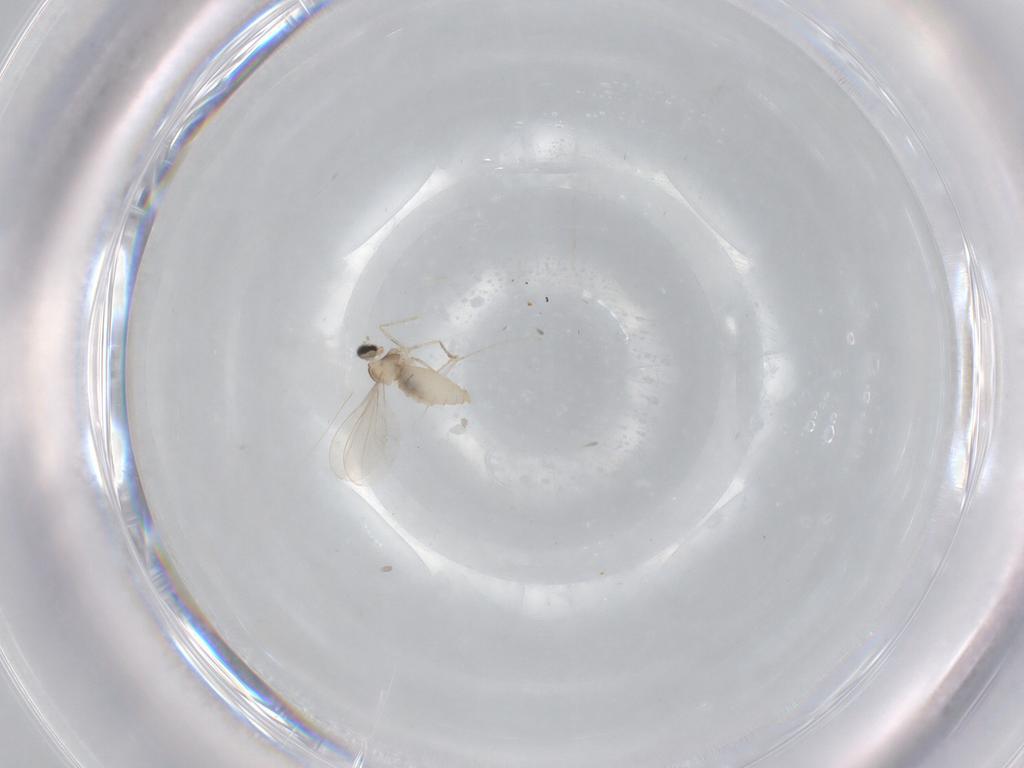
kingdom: Animalia
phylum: Arthropoda
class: Insecta
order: Diptera
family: Cecidomyiidae
